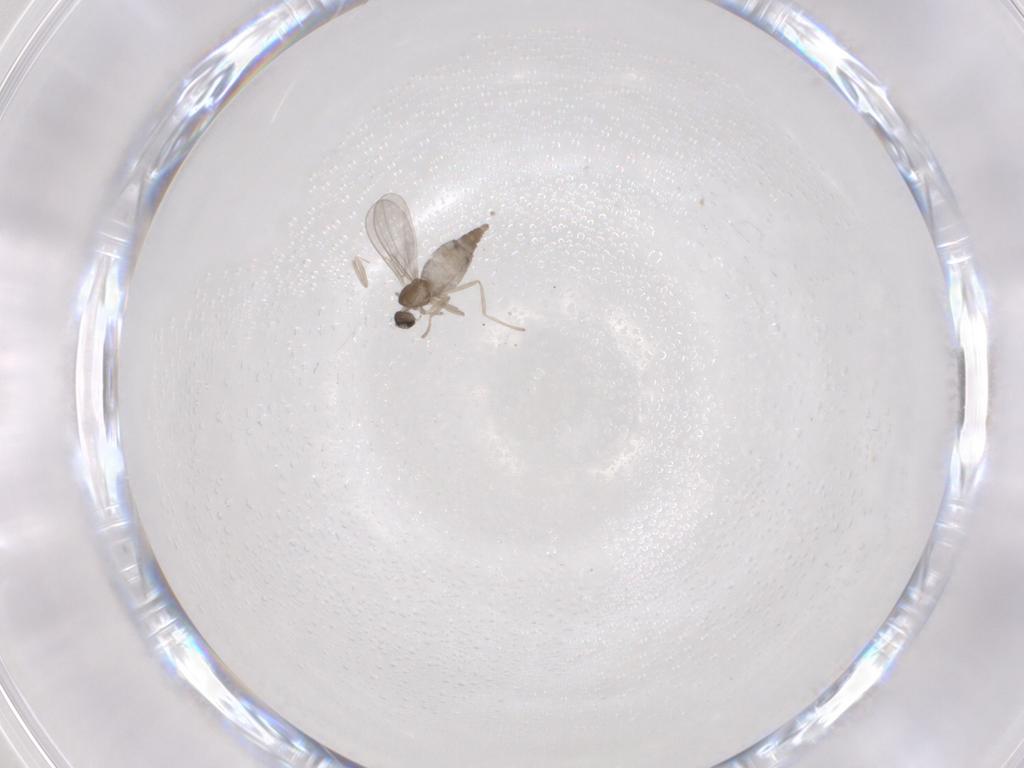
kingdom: Animalia
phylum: Arthropoda
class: Insecta
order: Diptera
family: Cecidomyiidae
